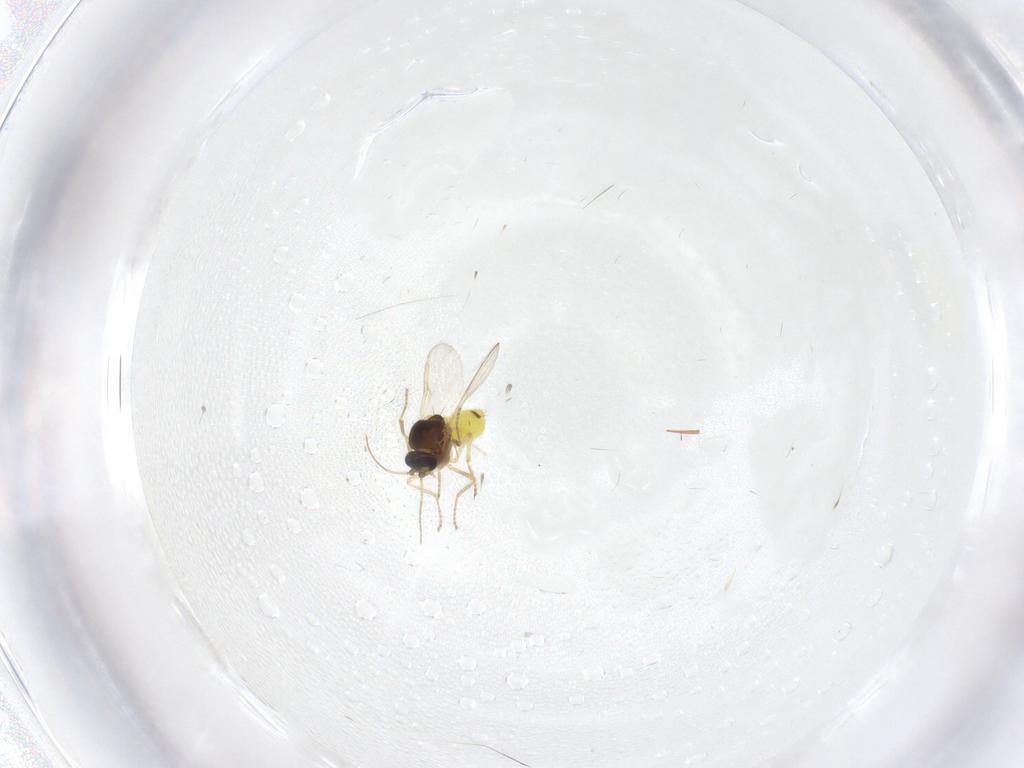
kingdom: Animalia
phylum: Arthropoda
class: Insecta
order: Diptera
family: Ceratopogonidae
